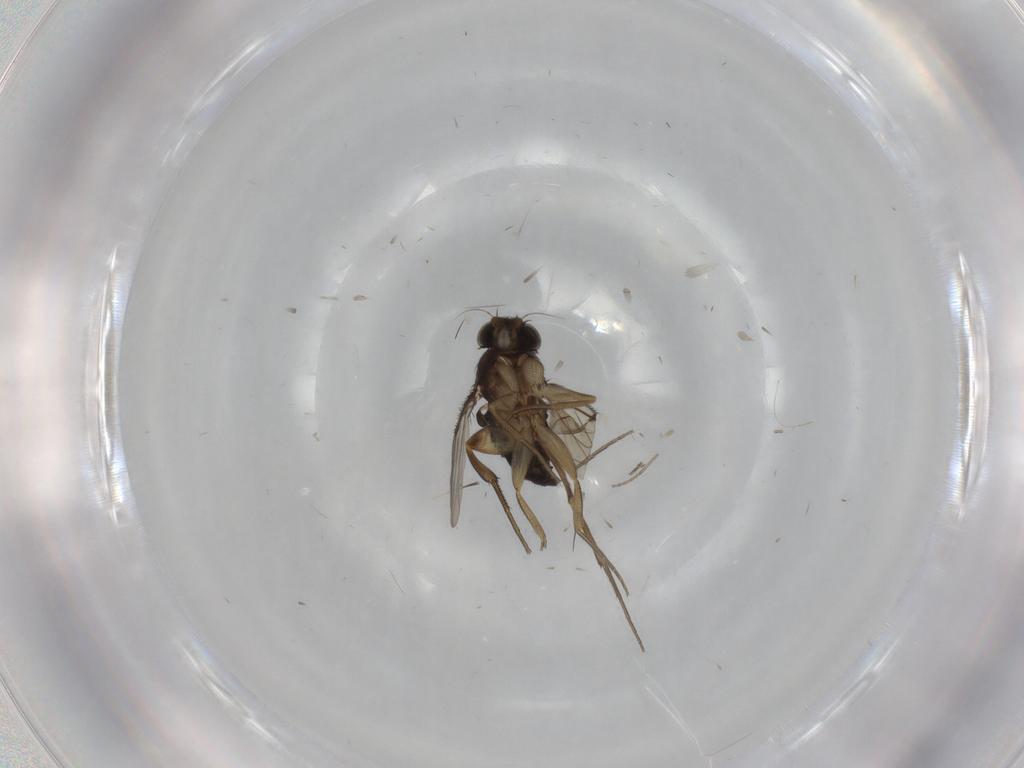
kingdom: Animalia
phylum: Arthropoda
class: Insecta
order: Diptera
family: Phoridae
